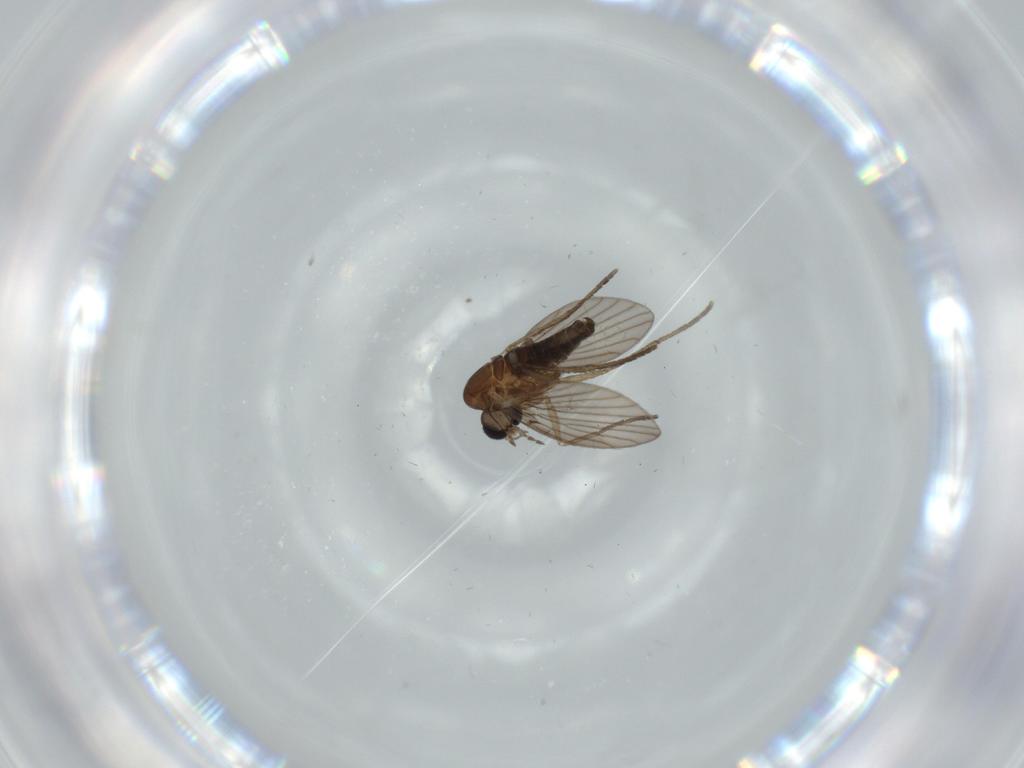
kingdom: Animalia
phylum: Arthropoda
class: Insecta
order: Diptera
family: Psychodidae
